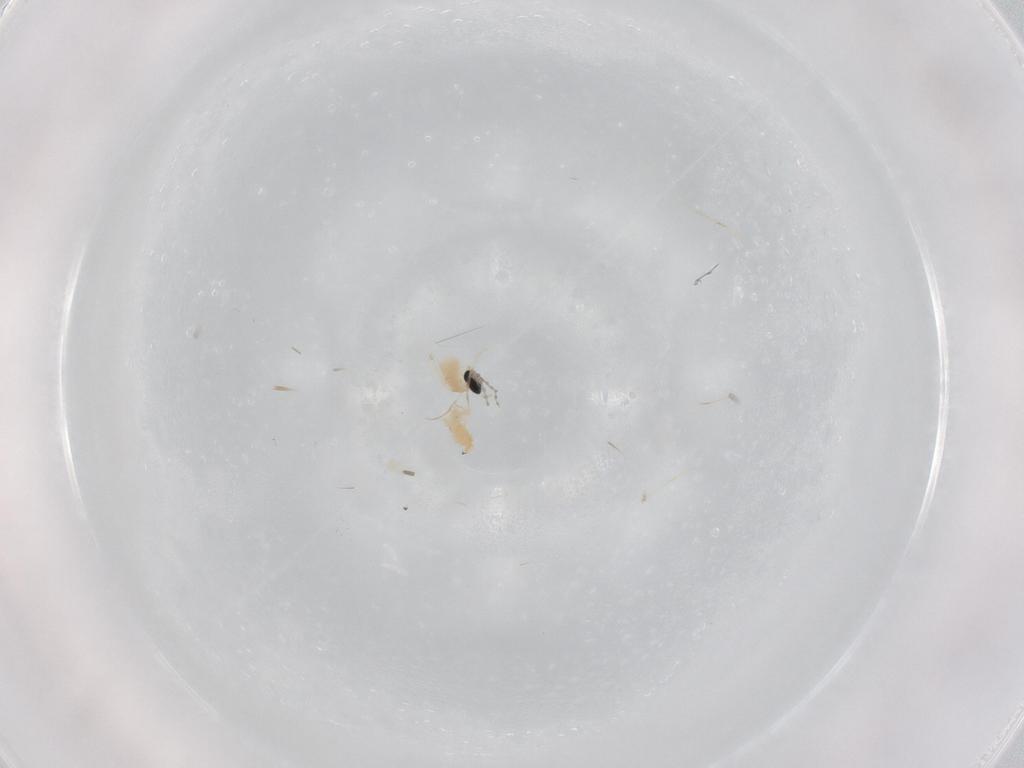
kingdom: Animalia
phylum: Arthropoda
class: Insecta
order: Diptera
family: Cecidomyiidae
